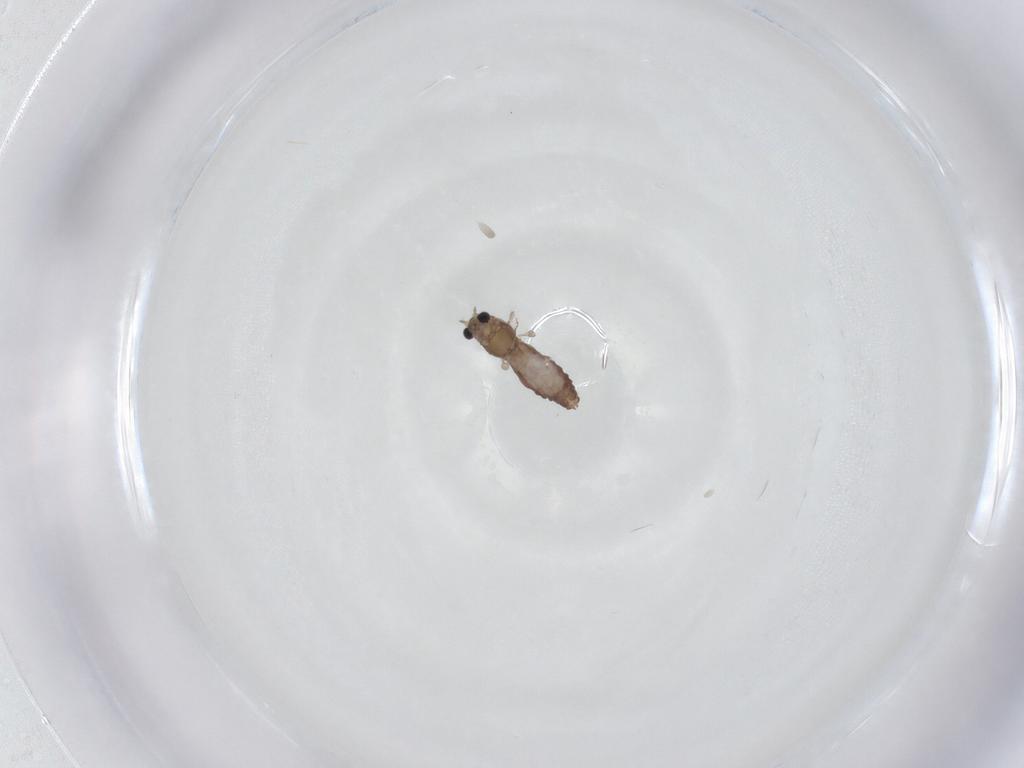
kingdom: Animalia
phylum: Arthropoda
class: Insecta
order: Diptera
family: Chironomidae
